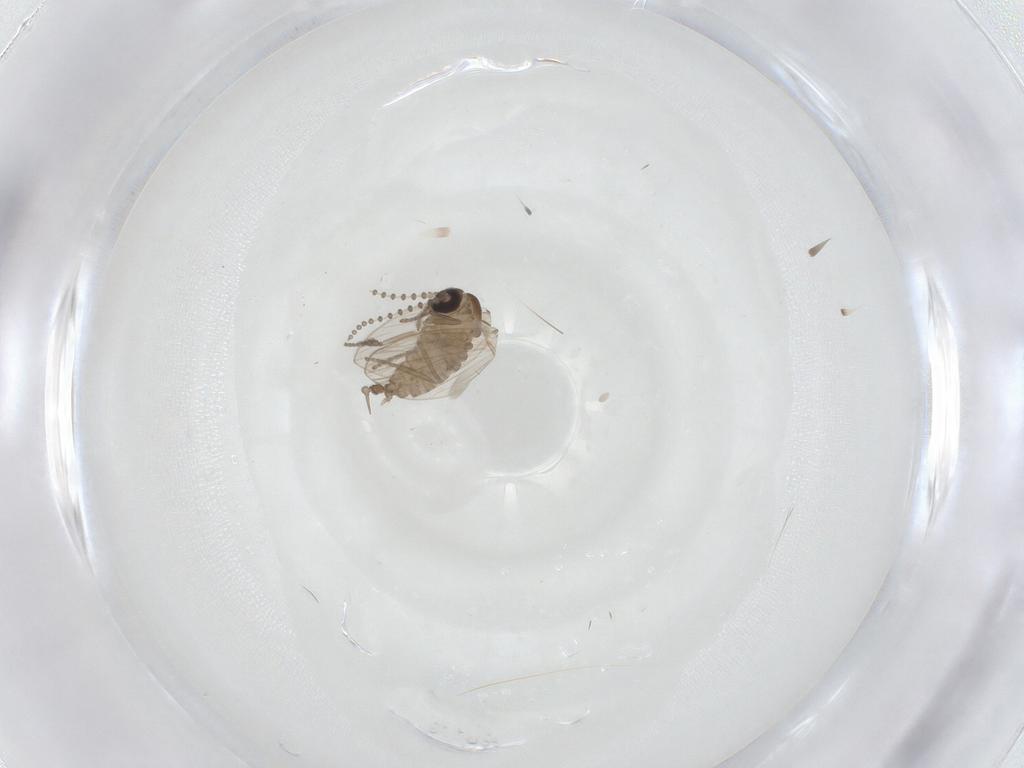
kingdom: Animalia
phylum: Arthropoda
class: Insecta
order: Diptera
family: Psychodidae
